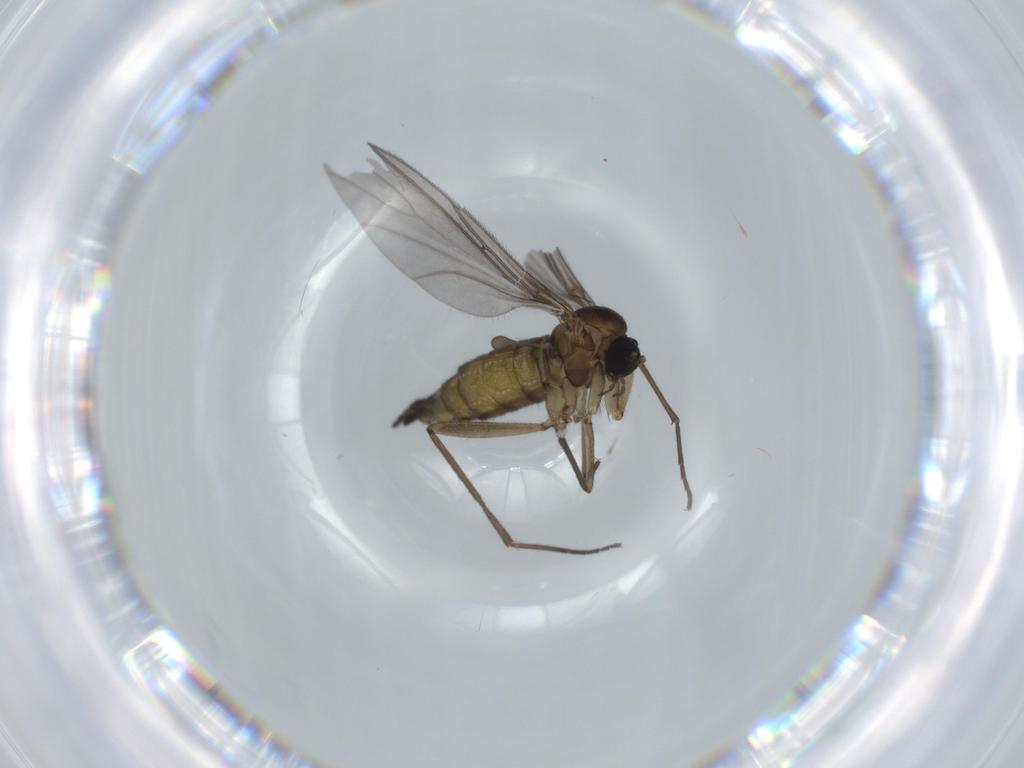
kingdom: Animalia
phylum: Arthropoda
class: Insecta
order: Diptera
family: Sciaridae
